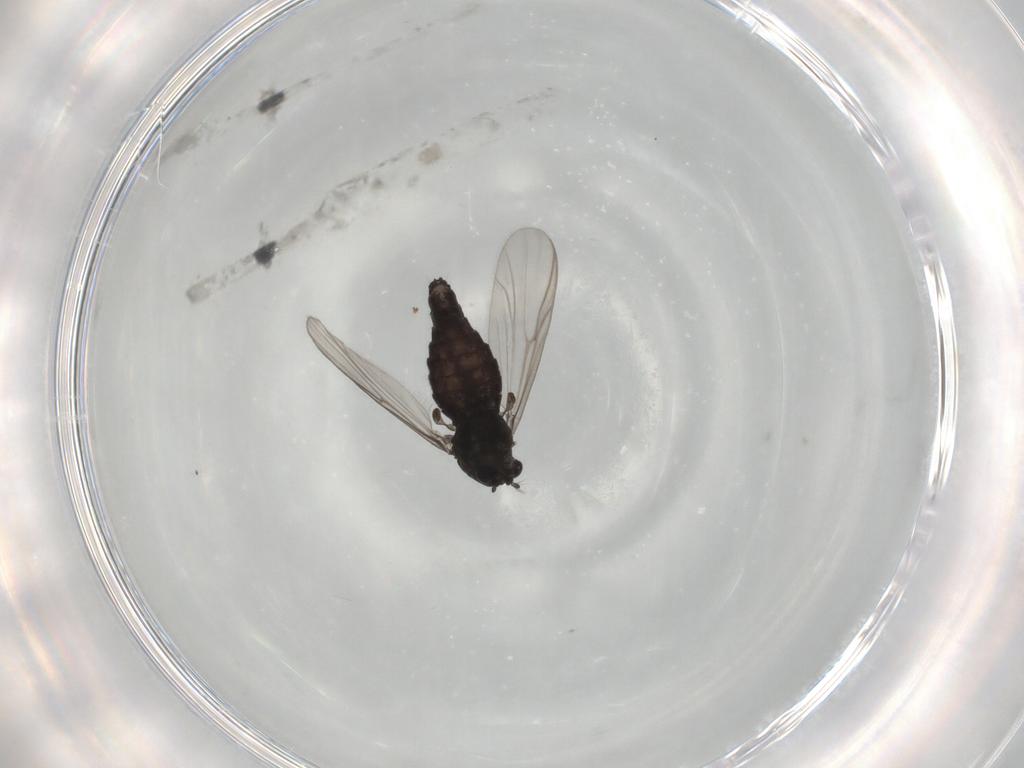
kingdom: Animalia
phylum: Arthropoda
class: Insecta
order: Diptera
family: Chironomidae
